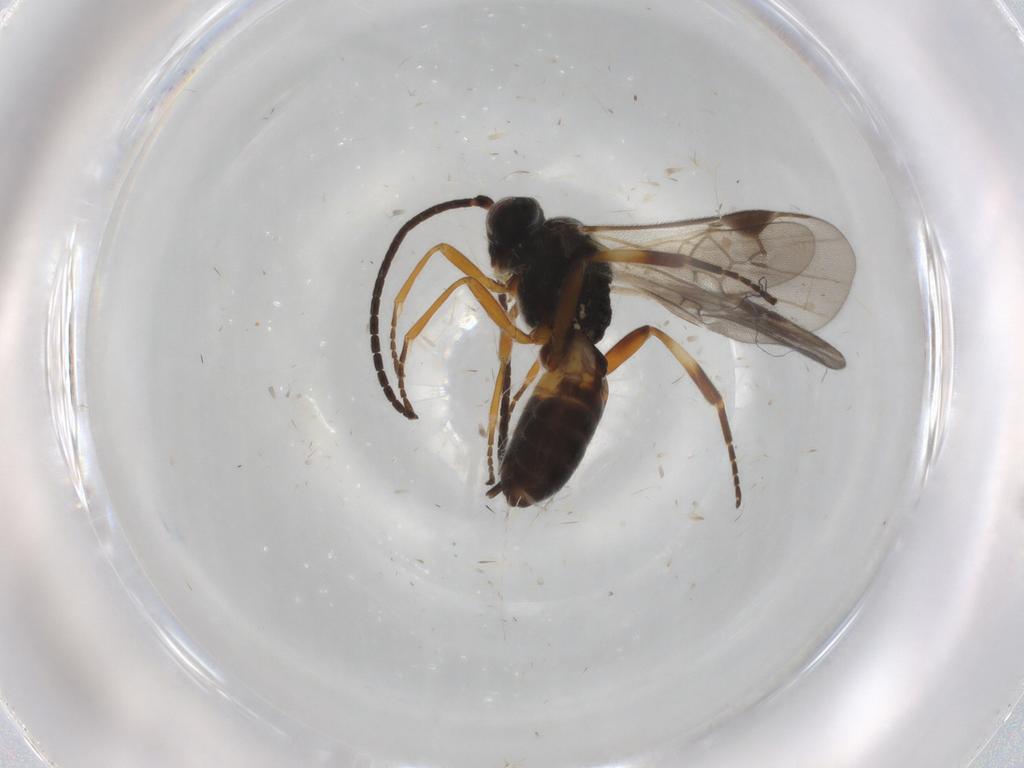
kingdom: Animalia
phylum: Arthropoda
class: Insecta
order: Hymenoptera
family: Braconidae
